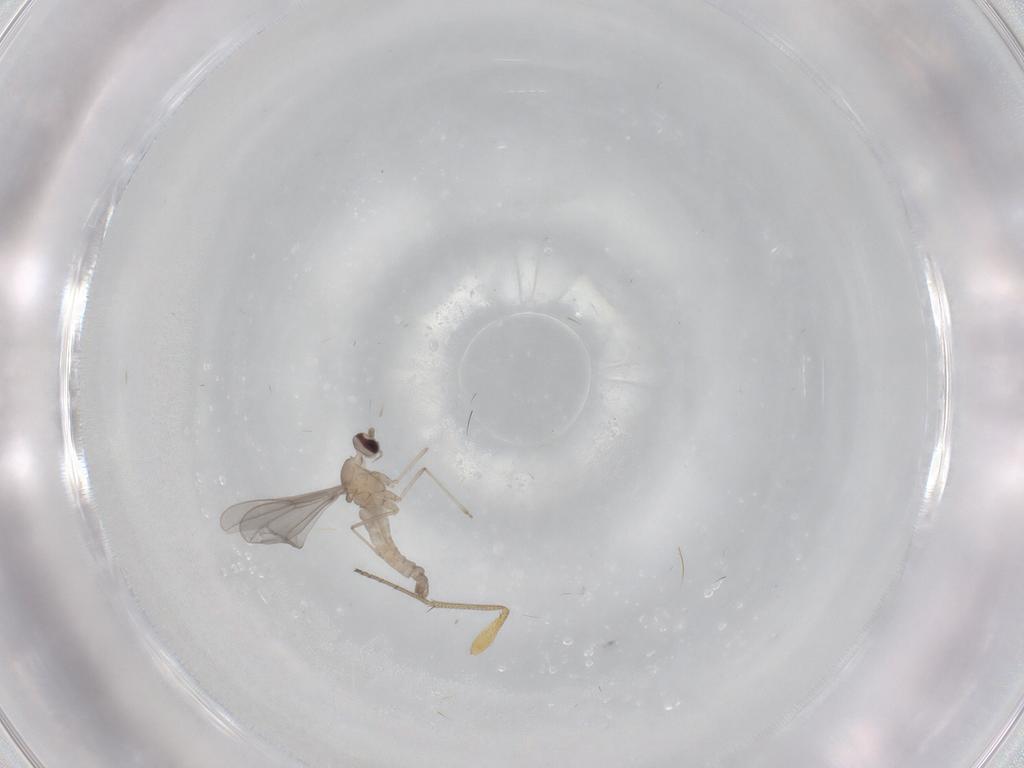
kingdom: Animalia
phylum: Arthropoda
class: Insecta
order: Diptera
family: Cecidomyiidae
